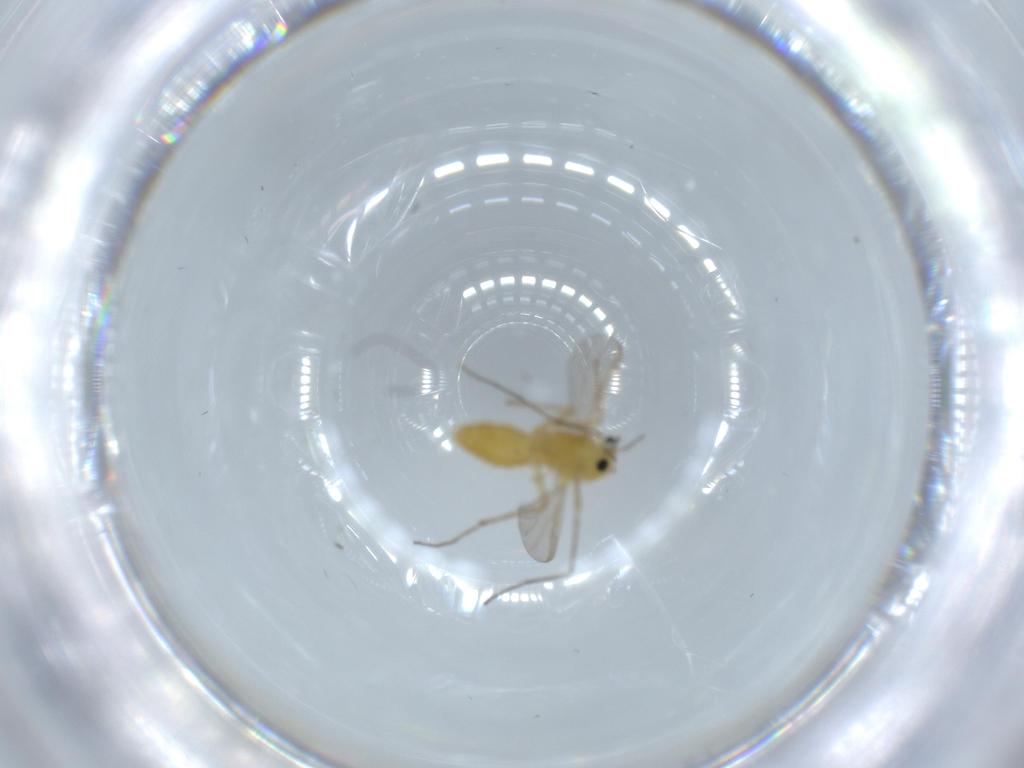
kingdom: Animalia
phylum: Arthropoda
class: Insecta
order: Diptera
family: Chironomidae
